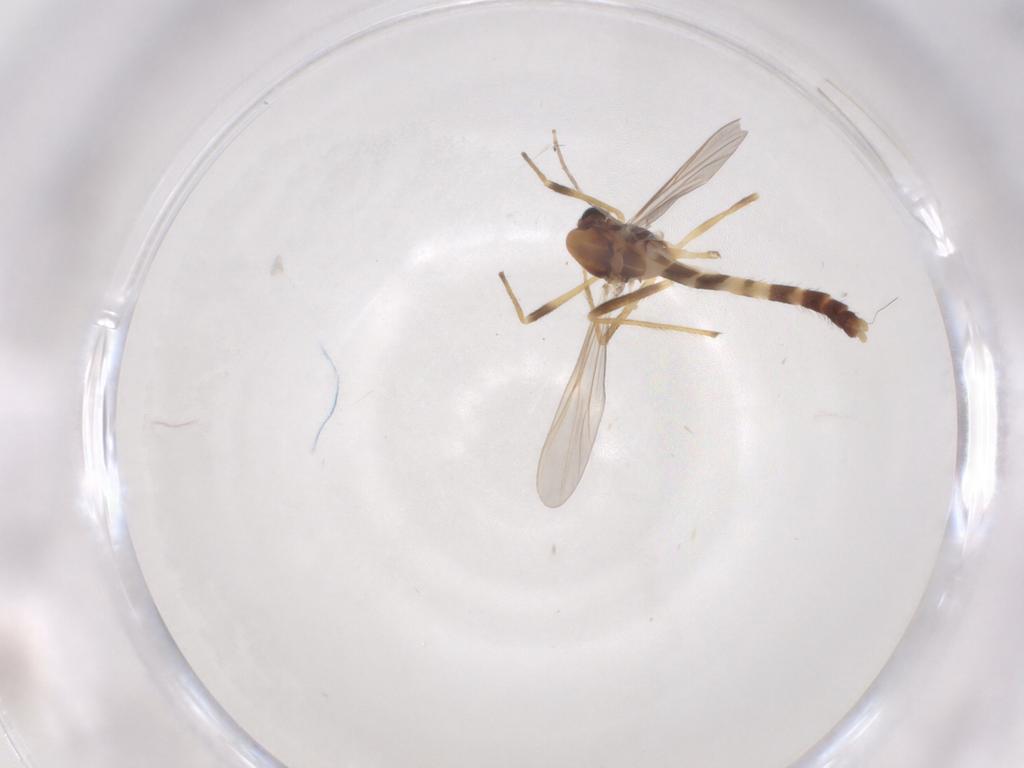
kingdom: Animalia
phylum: Arthropoda
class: Insecta
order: Diptera
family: Chironomidae
